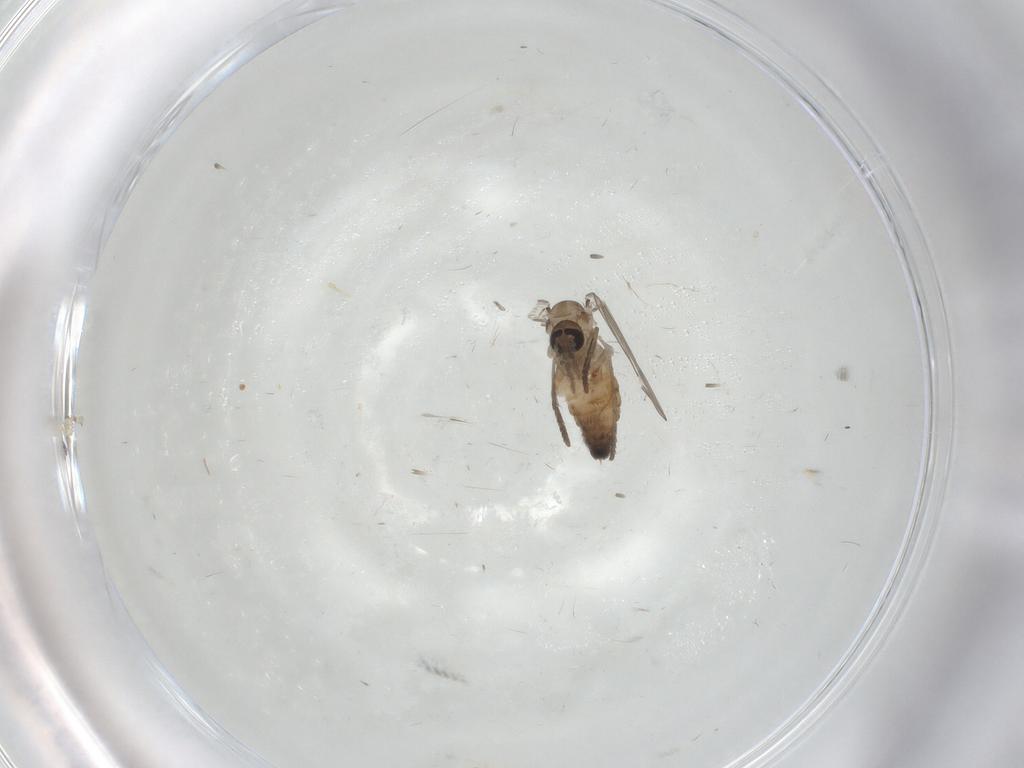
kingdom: Animalia
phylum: Arthropoda
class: Insecta
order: Diptera
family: Psychodidae
